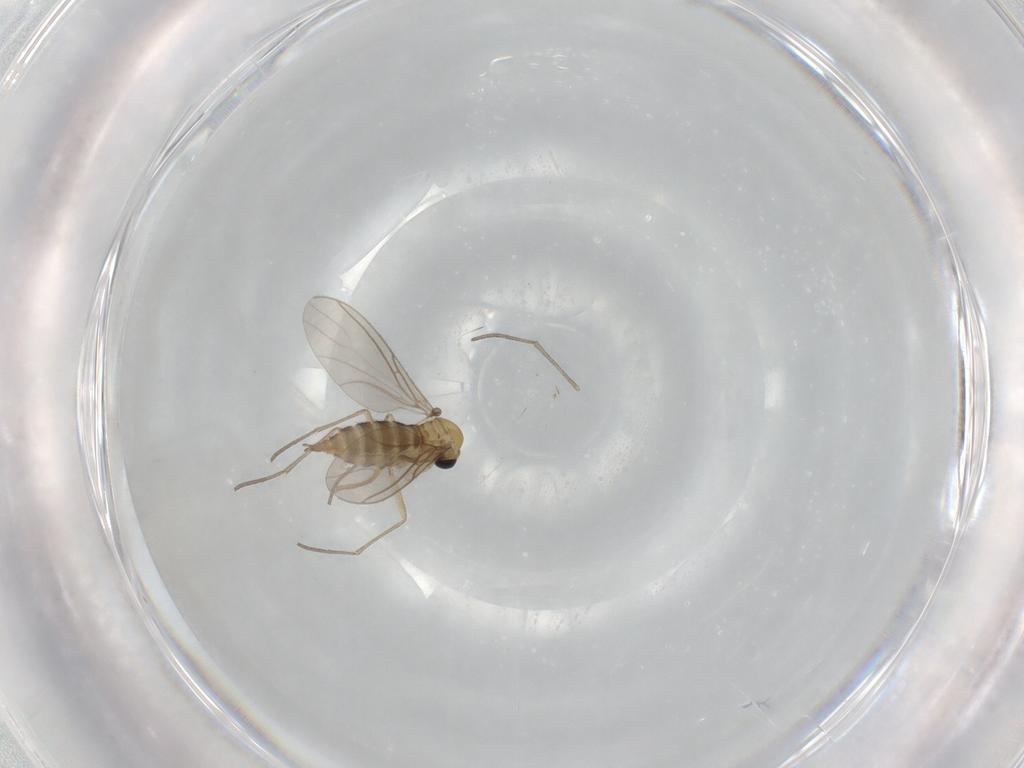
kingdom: Animalia
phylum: Arthropoda
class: Insecta
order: Diptera
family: Sciaridae
